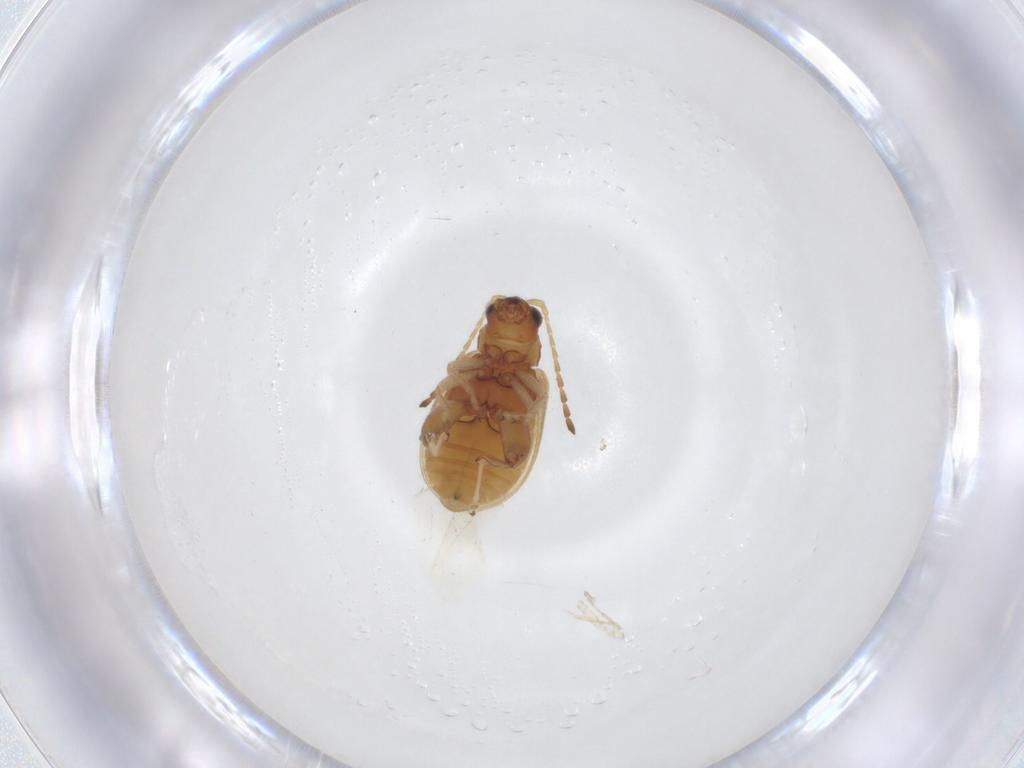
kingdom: Animalia
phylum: Arthropoda
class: Insecta
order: Coleoptera
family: Chrysomelidae
